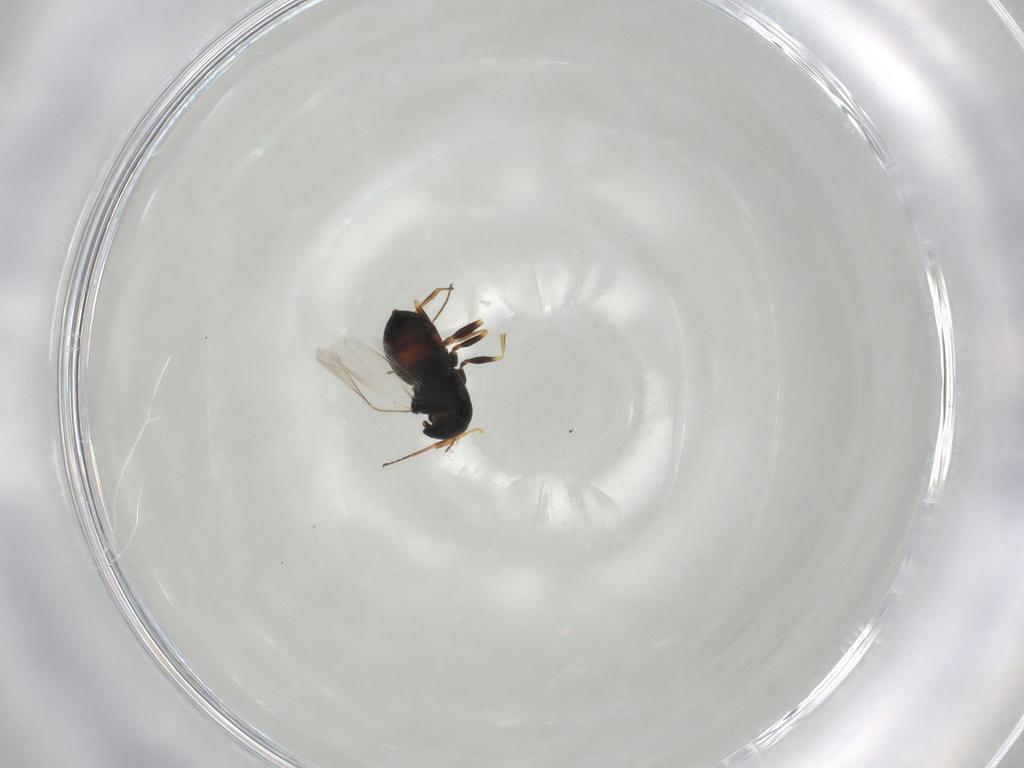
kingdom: Animalia
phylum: Arthropoda
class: Insecta
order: Hymenoptera
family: Scelionidae
